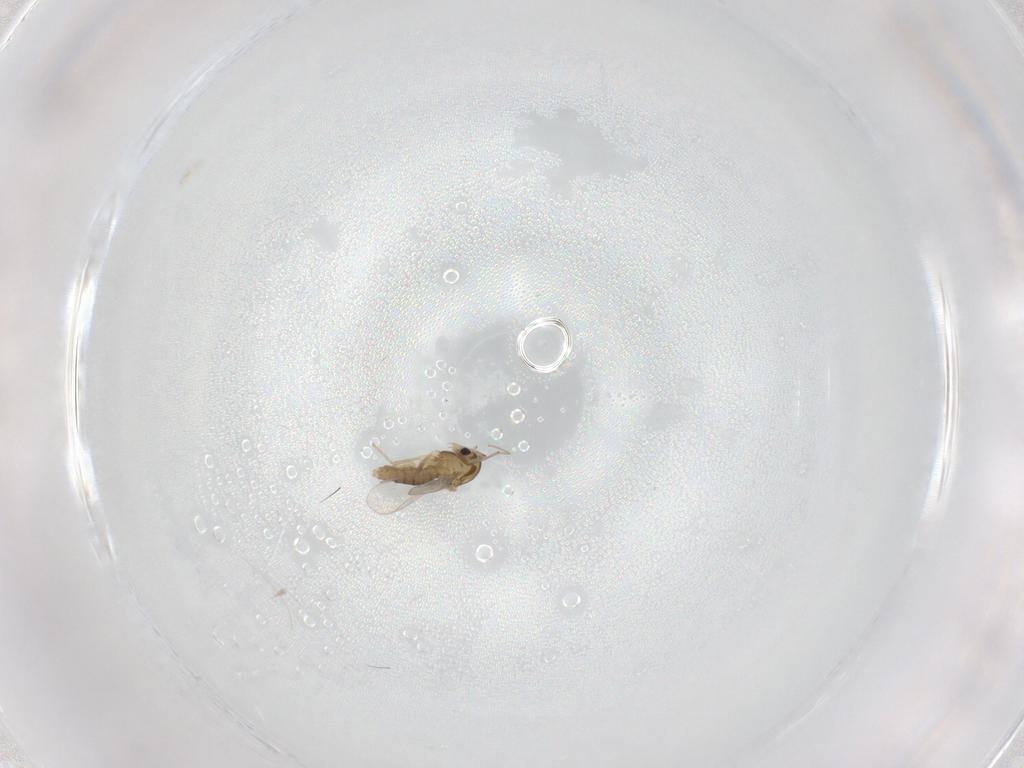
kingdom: Animalia
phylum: Arthropoda
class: Insecta
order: Diptera
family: Chironomidae
